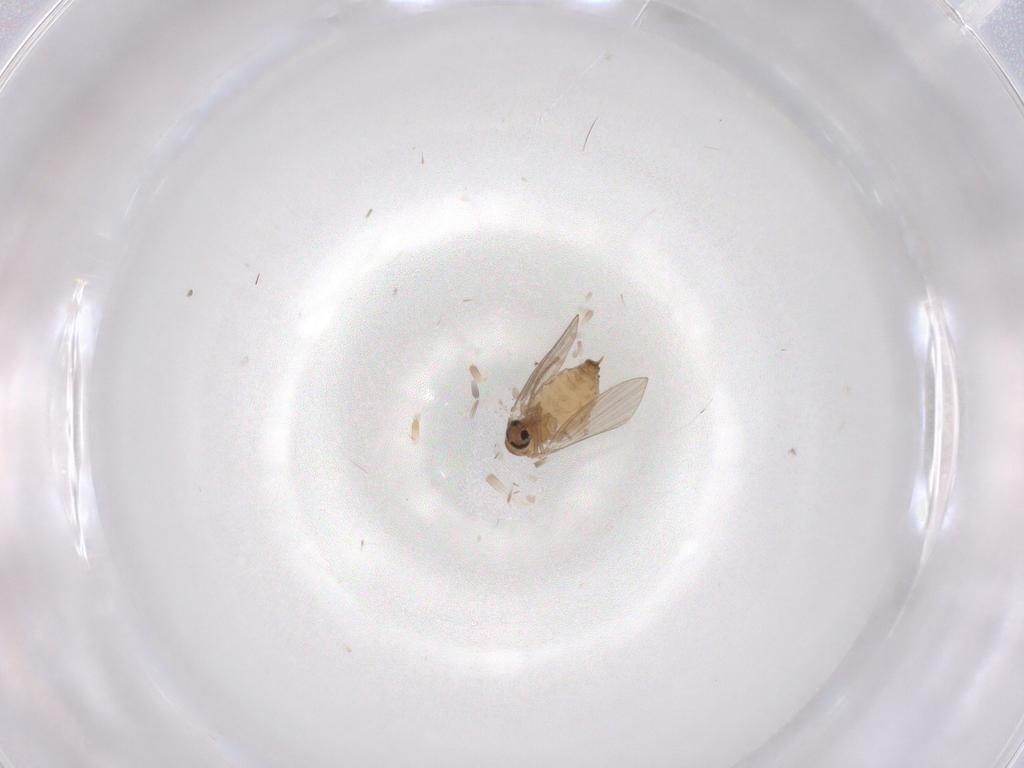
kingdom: Animalia
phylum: Arthropoda
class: Insecta
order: Diptera
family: Psychodidae
